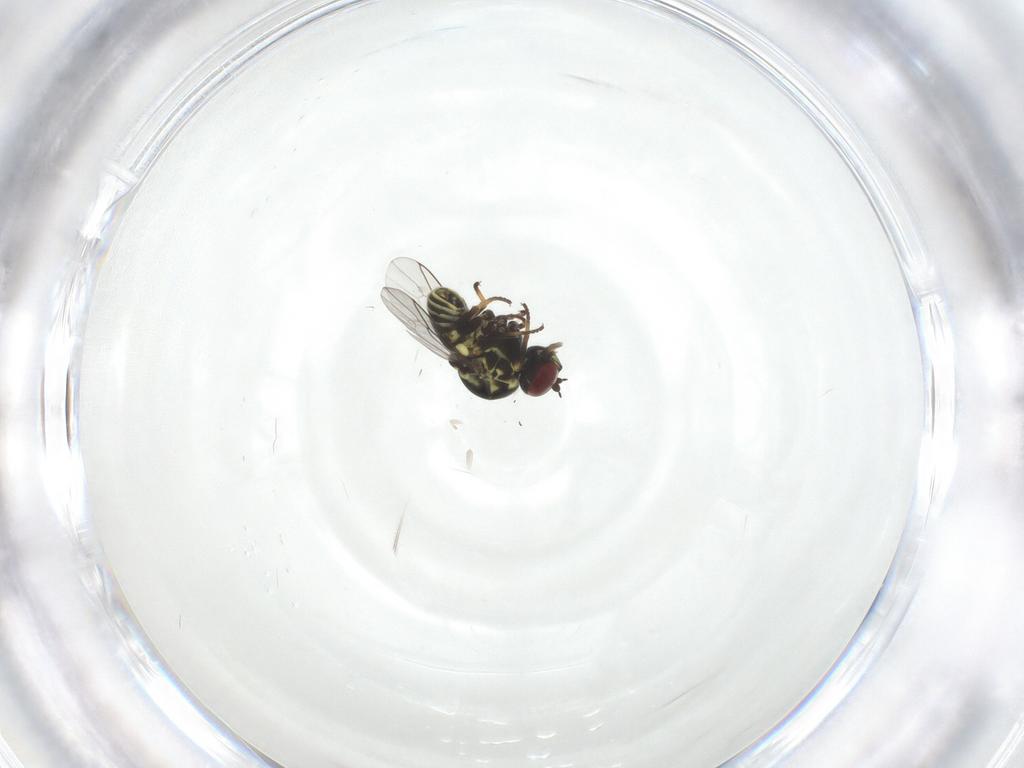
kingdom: Animalia
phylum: Arthropoda
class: Insecta
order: Diptera
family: Mythicomyiidae
